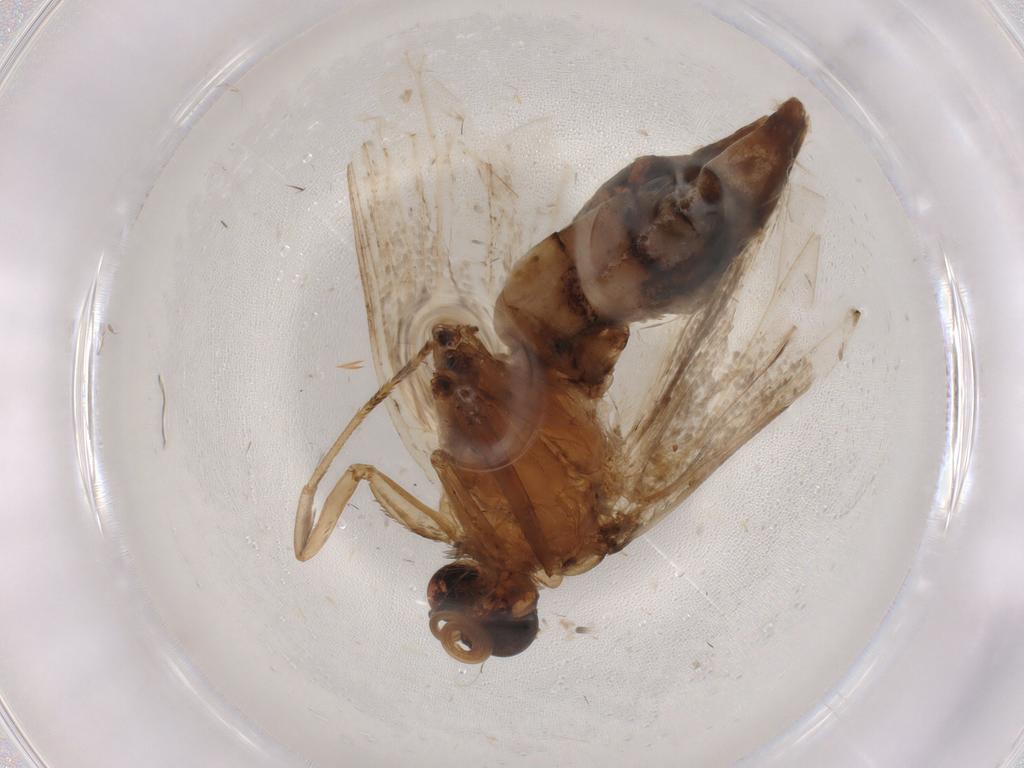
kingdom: Animalia
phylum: Arthropoda
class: Insecta
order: Lepidoptera
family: Erebidae
